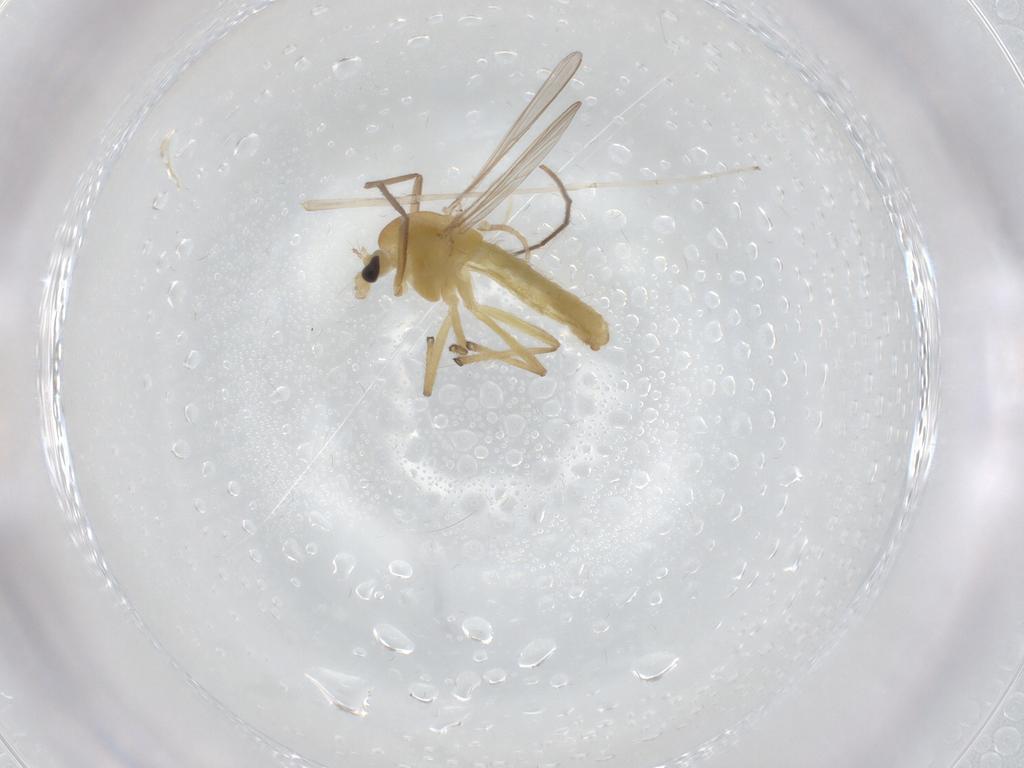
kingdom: Animalia
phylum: Arthropoda
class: Insecta
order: Diptera
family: Chironomidae
